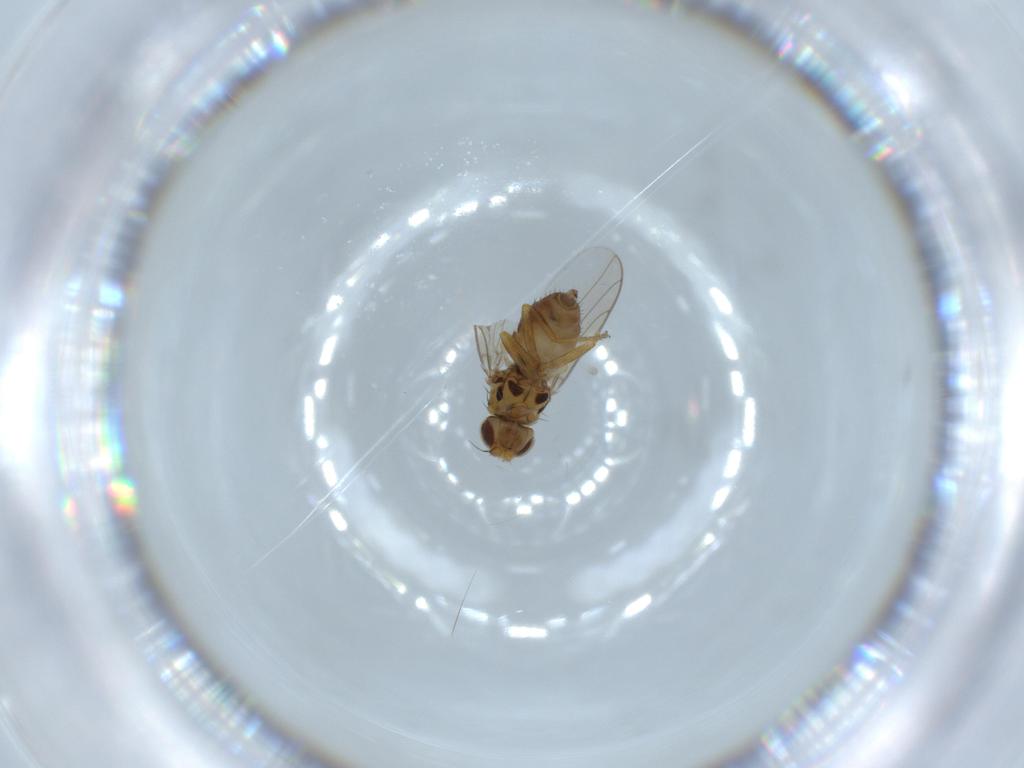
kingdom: Animalia
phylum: Arthropoda
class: Insecta
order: Diptera
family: Chloropidae
